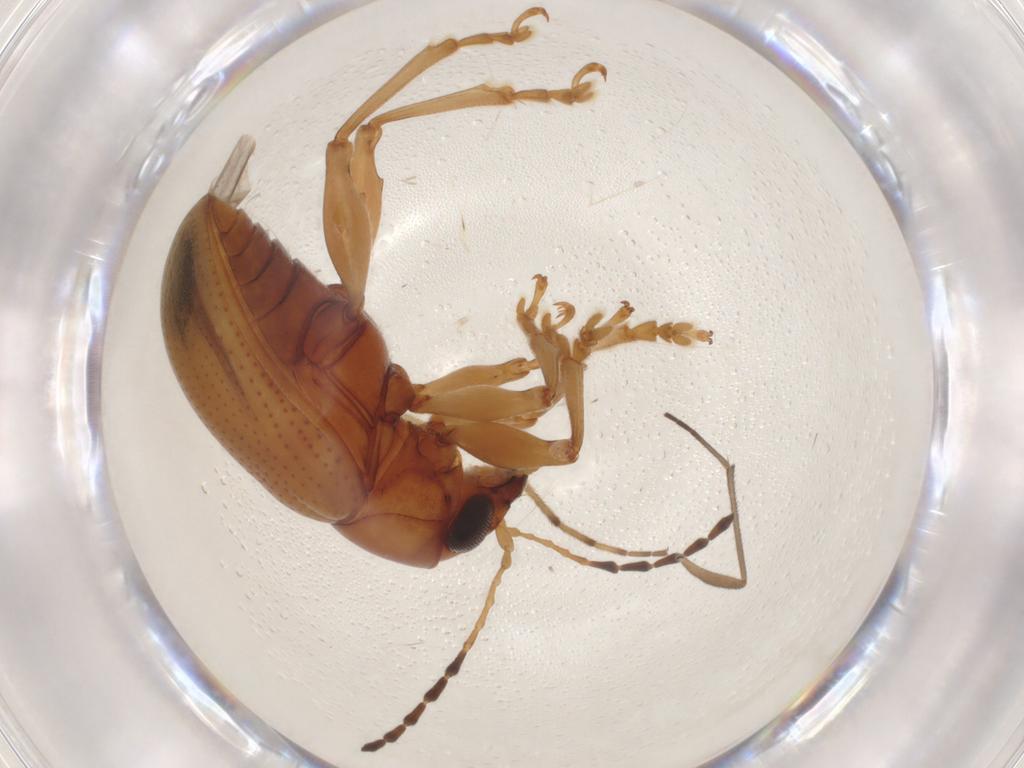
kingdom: Animalia
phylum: Arthropoda
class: Insecta
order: Coleoptera
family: Chrysomelidae
